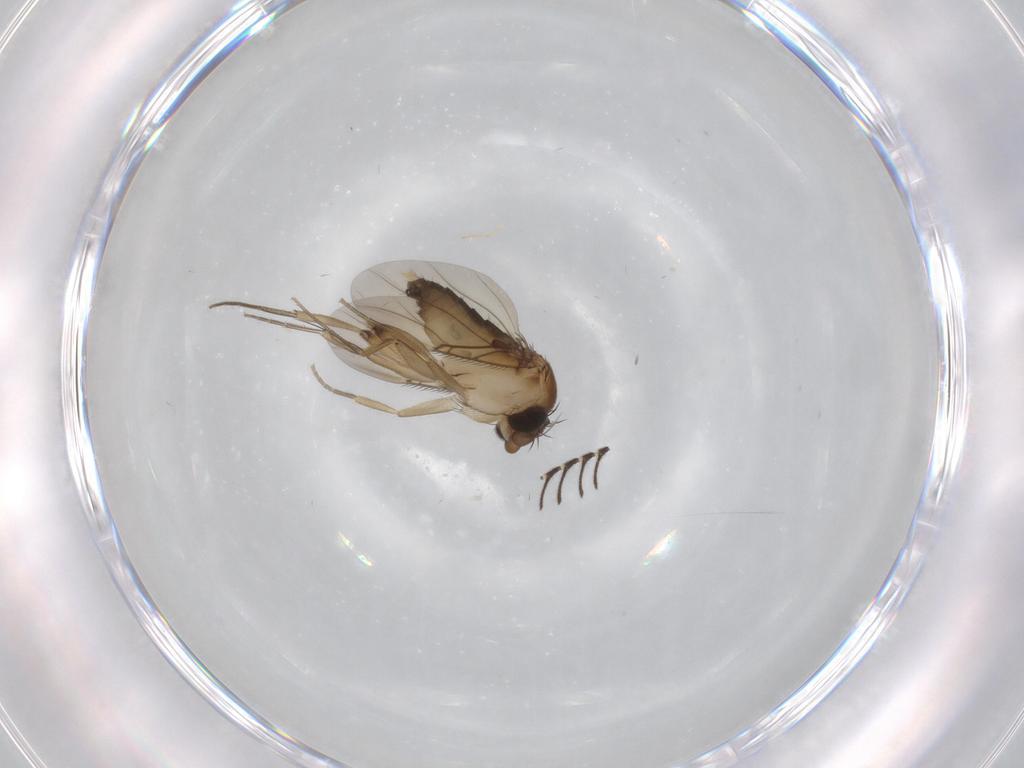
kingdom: Animalia
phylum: Arthropoda
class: Insecta
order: Diptera
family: Phoridae
